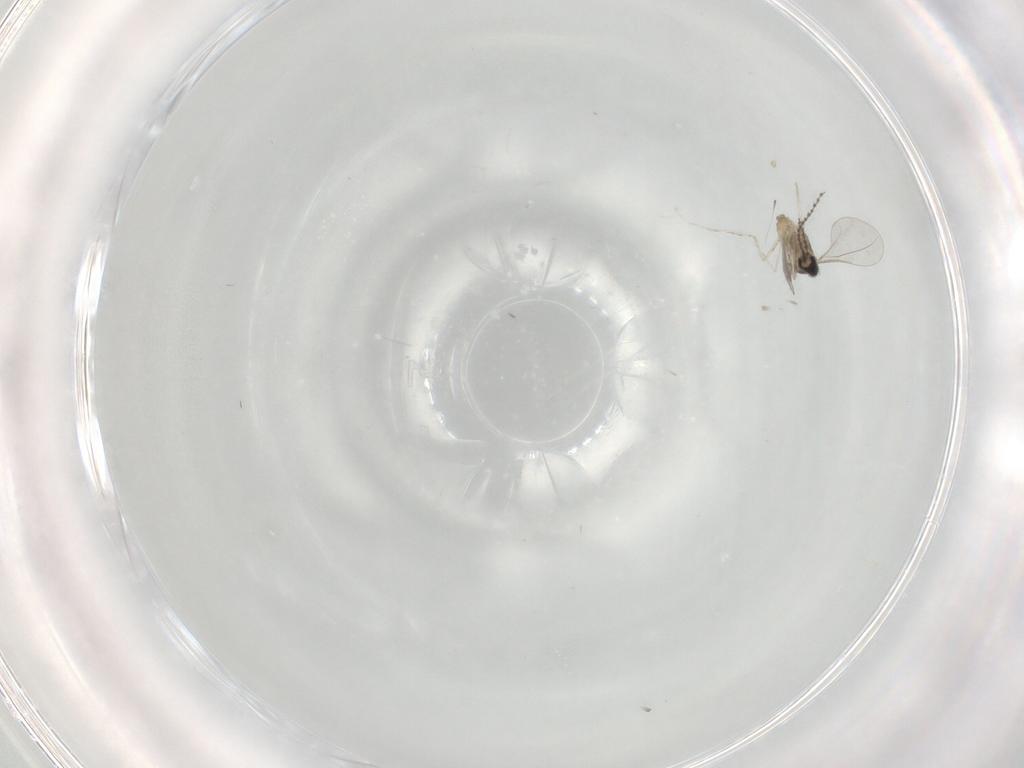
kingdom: Animalia
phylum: Arthropoda
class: Insecta
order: Diptera
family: Cecidomyiidae
